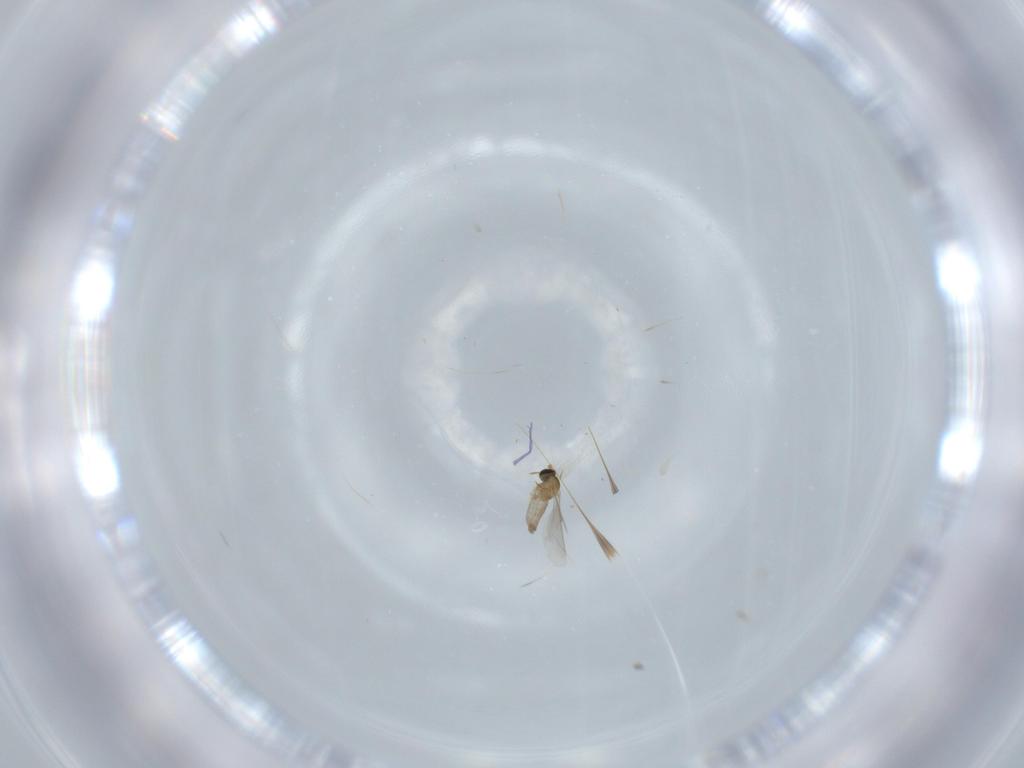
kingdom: Animalia
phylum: Arthropoda
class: Insecta
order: Diptera
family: Cecidomyiidae
